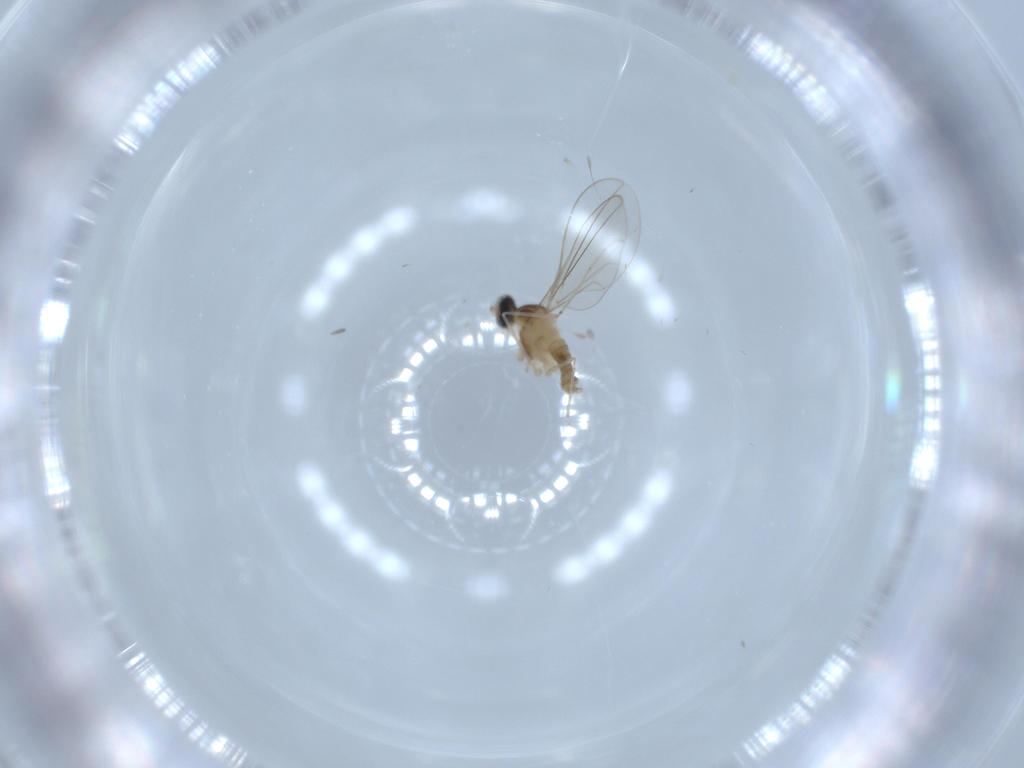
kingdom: Animalia
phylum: Arthropoda
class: Insecta
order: Diptera
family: Cecidomyiidae
